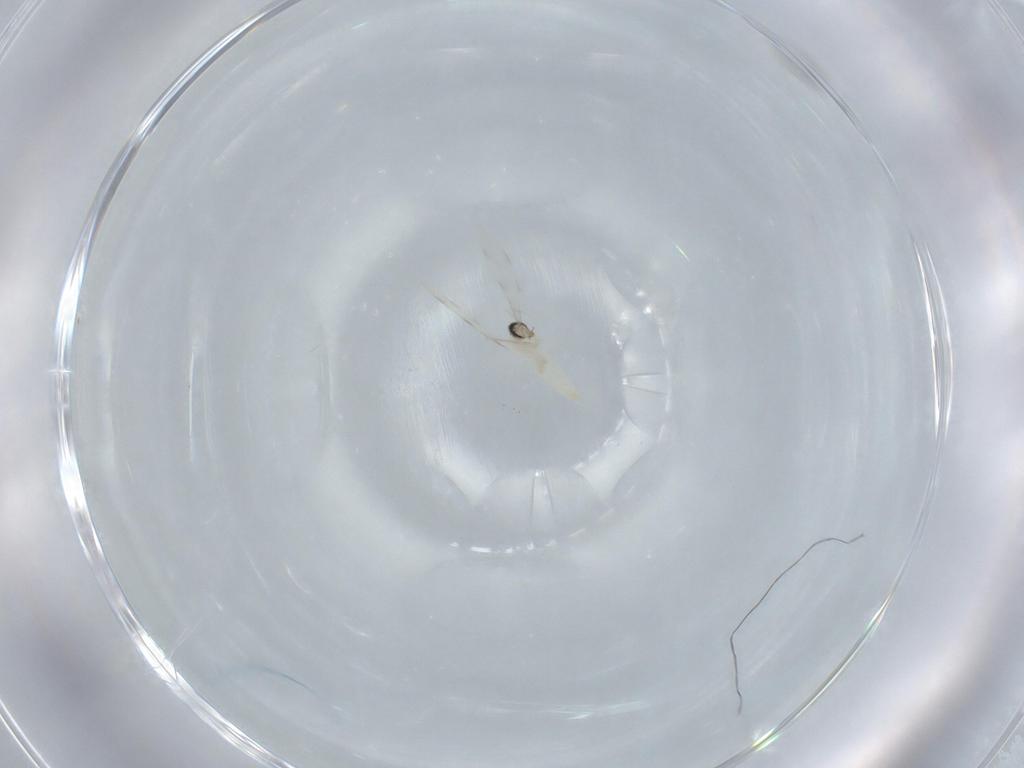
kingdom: Animalia
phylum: Arthropoda
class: Insecta
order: Diptera
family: Cecidomyiidae
